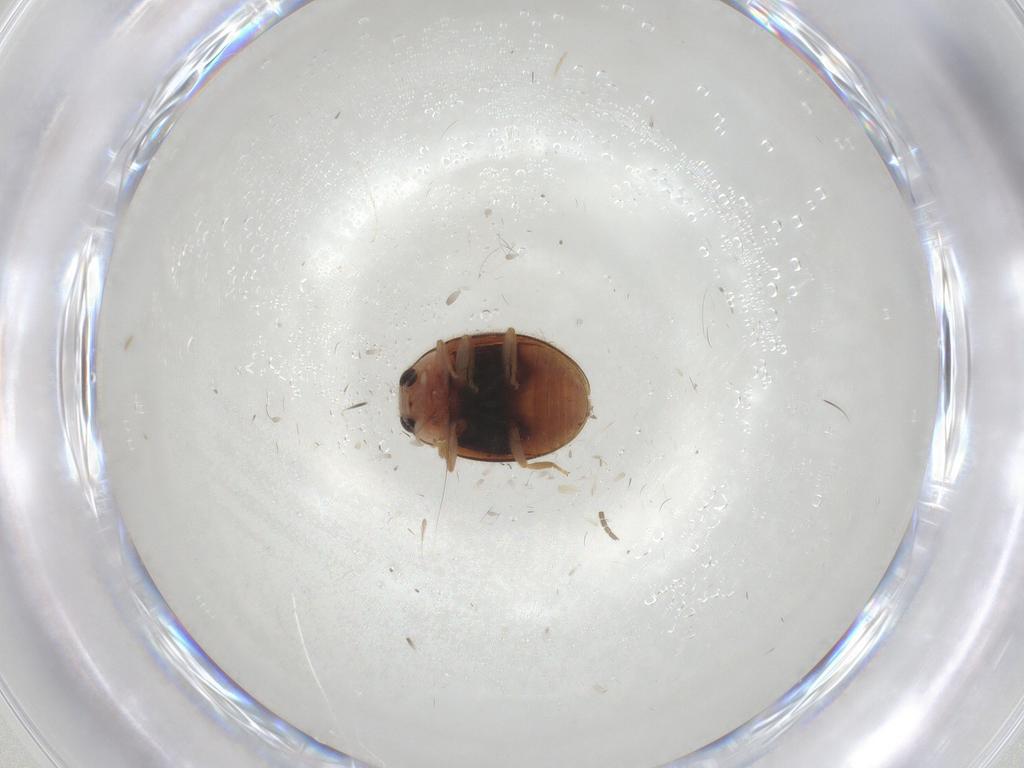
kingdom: Animalia
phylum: Arthropoda
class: Insecta
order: Coleoptera
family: Coccinellidae
